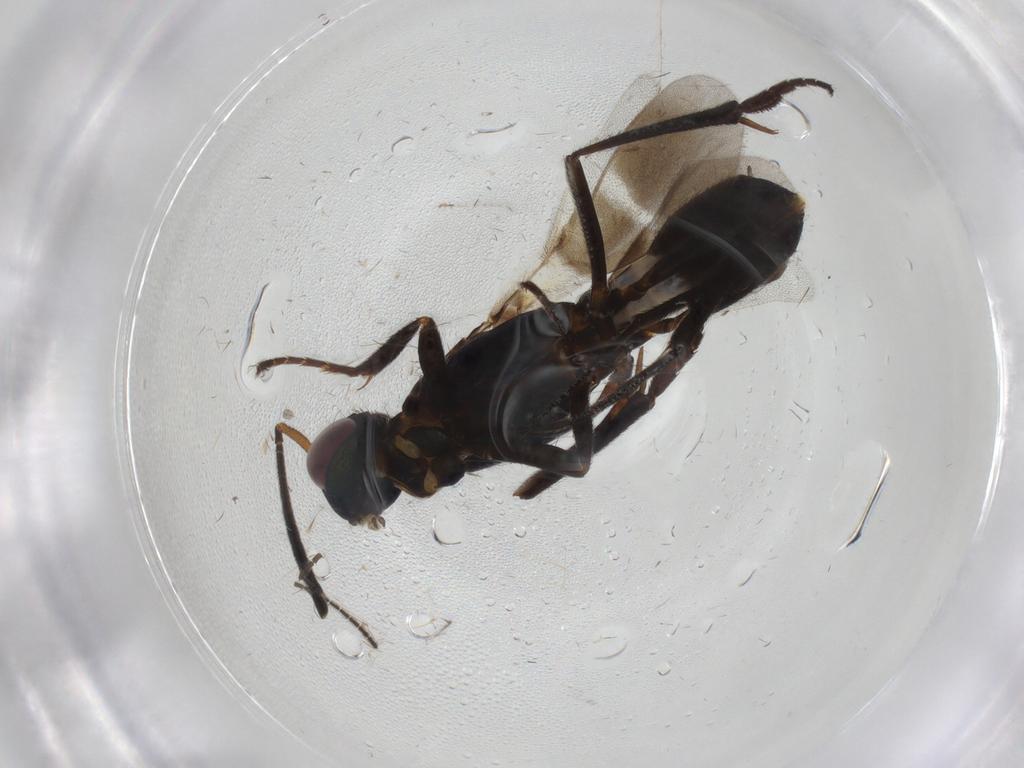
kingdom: Animalia
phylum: Arthropoda
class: Insecta
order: Hymenoptera
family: Eupelmidae
